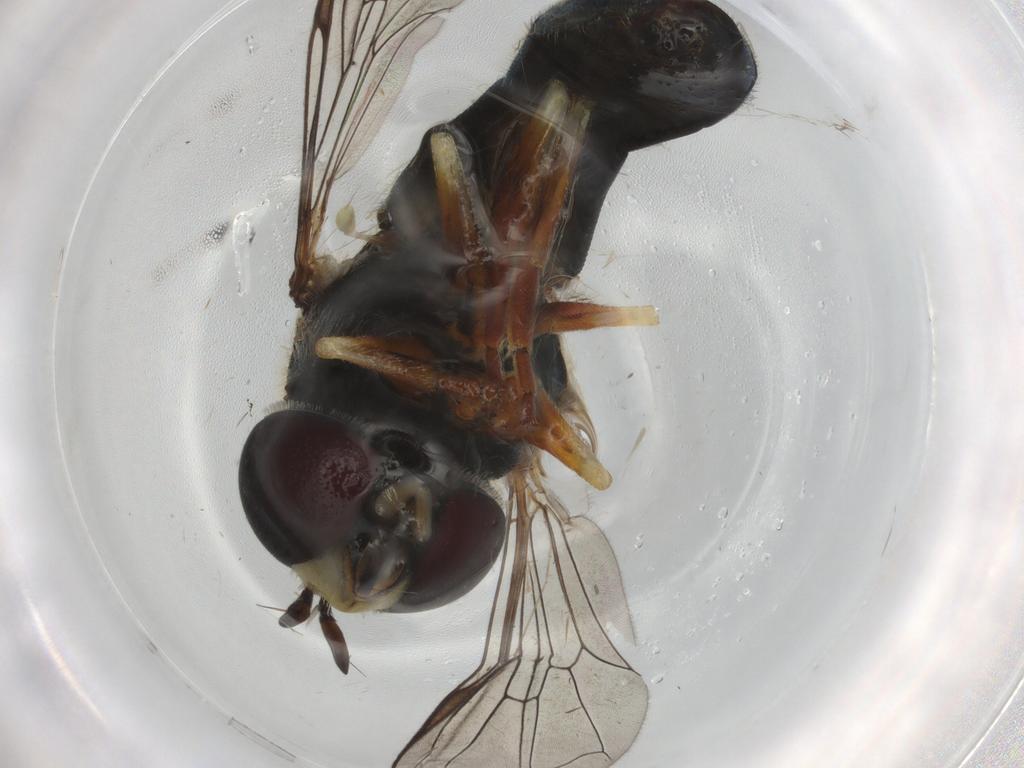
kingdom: Animalia
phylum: Arthropoda
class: Insecta
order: Diptera
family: Syrphidae
